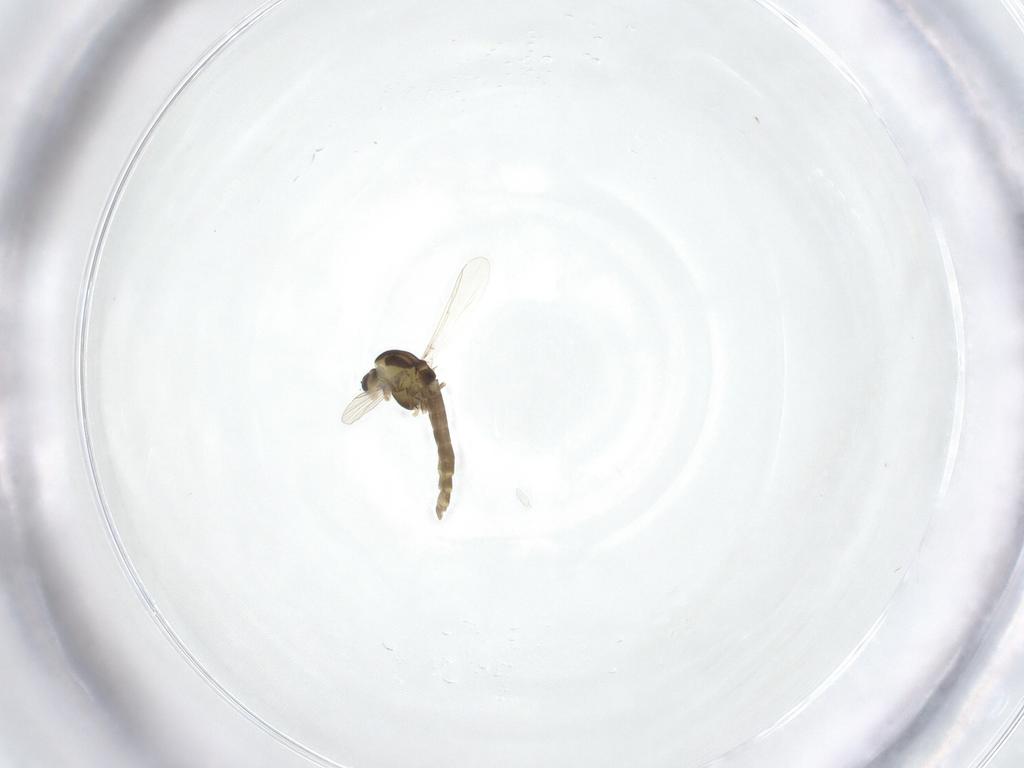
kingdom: Animalia
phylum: Arthropoda
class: Insecta
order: Diptera
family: Chironomidae
